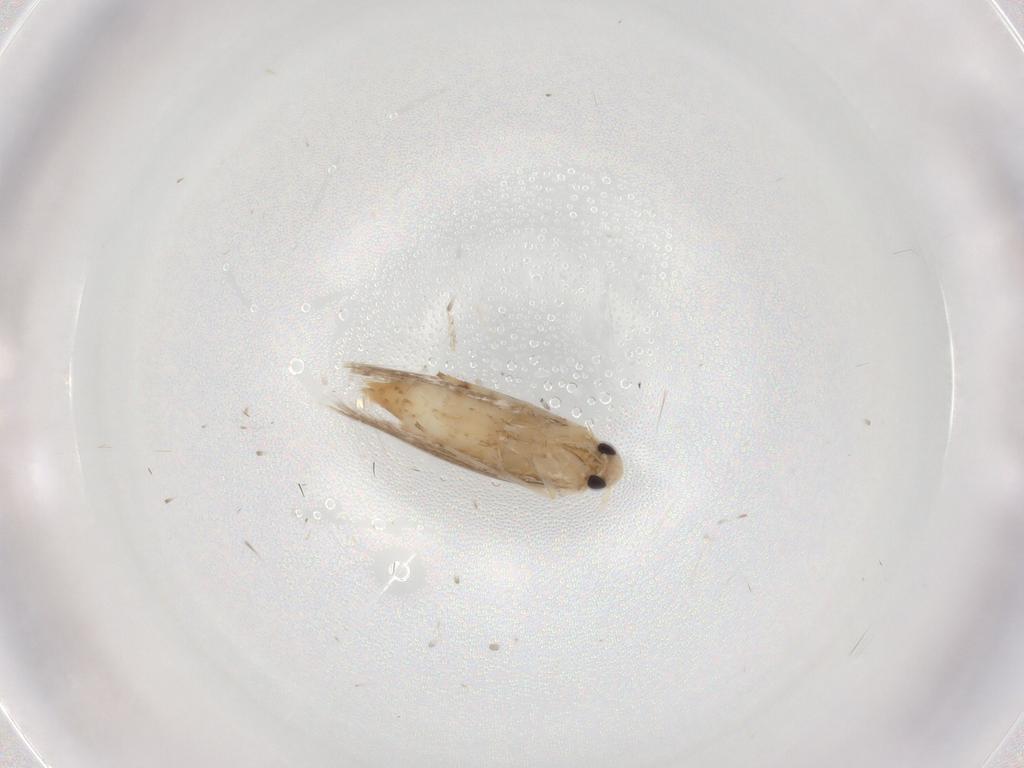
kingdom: Animalia
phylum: Arthropoda
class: Insecta
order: Lepidoptera
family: Gracillariidae
